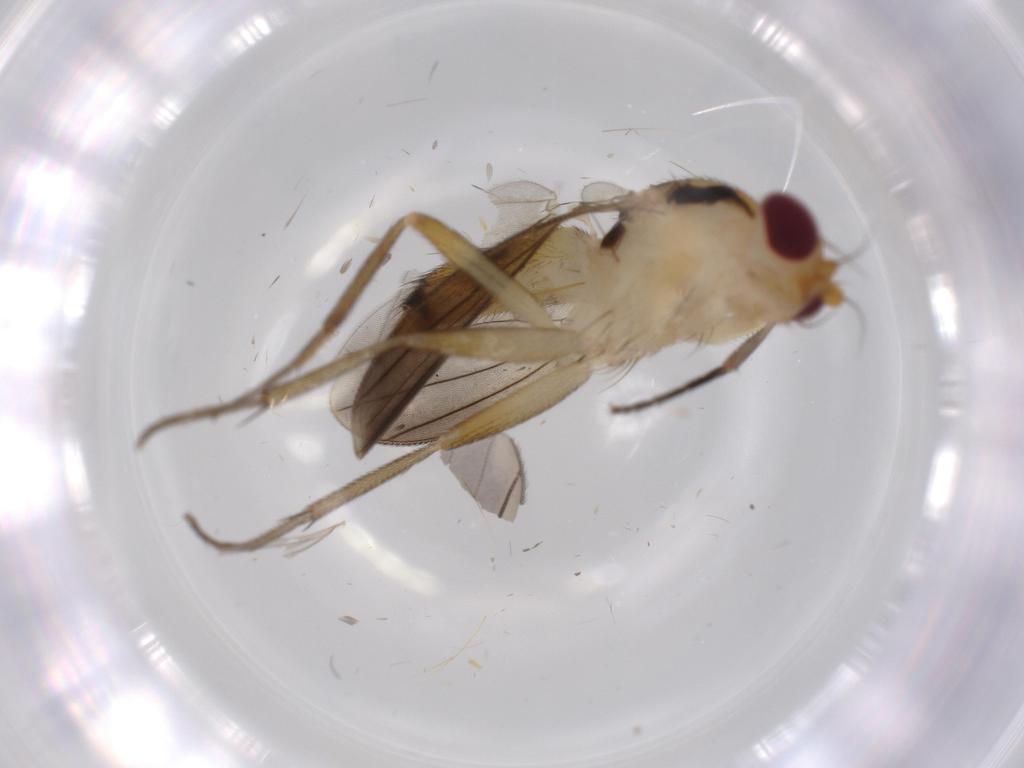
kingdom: Animalia
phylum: Arthropoda
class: Insecta
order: Diptera
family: Clusiidae
